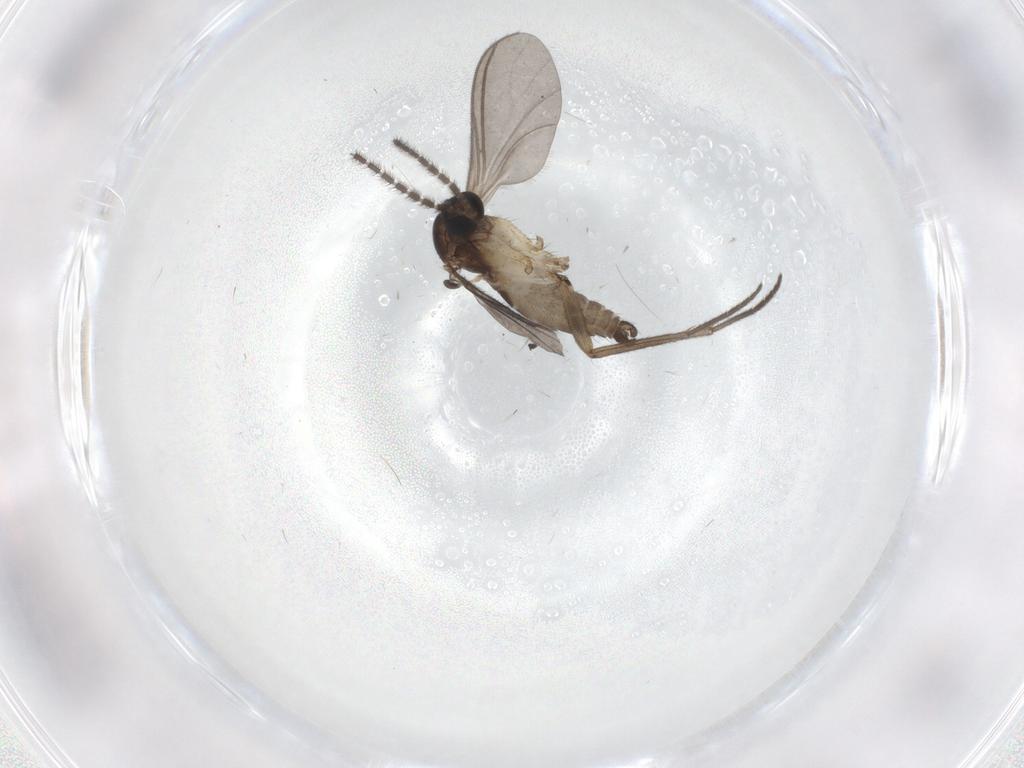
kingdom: Animalia
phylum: Arthropoda
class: Insecta
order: Diptera
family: Sciaridae
